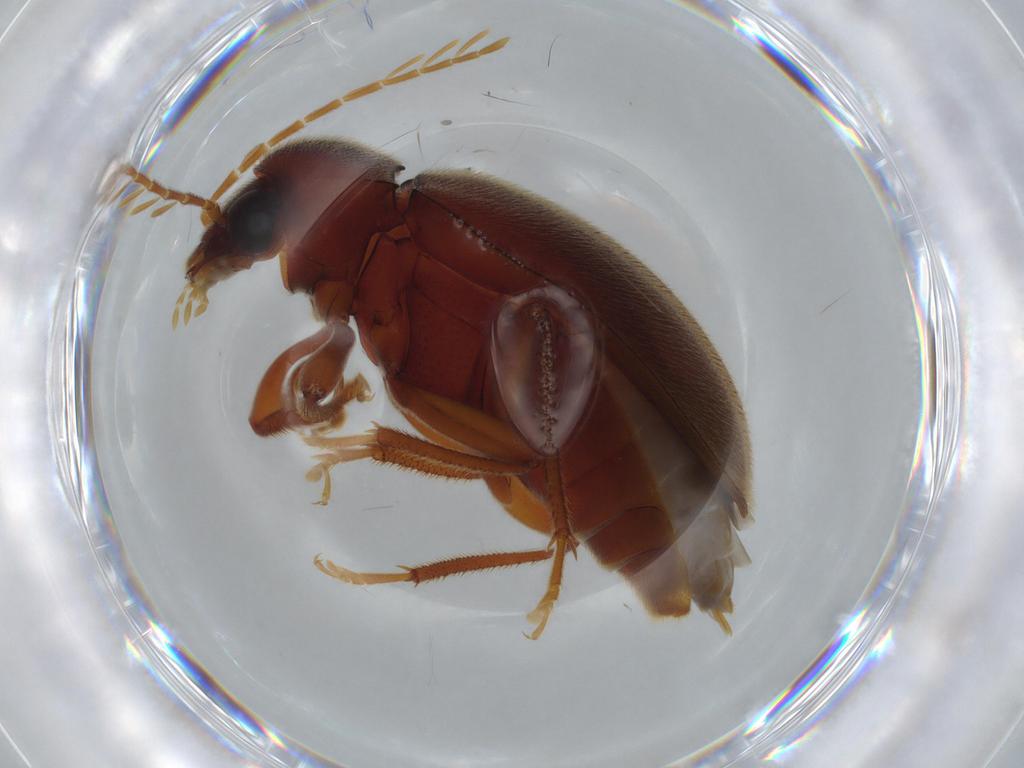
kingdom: Animalia
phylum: Arthropoda
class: Insecta
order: Coleoptera
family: Ptilodactylidae
